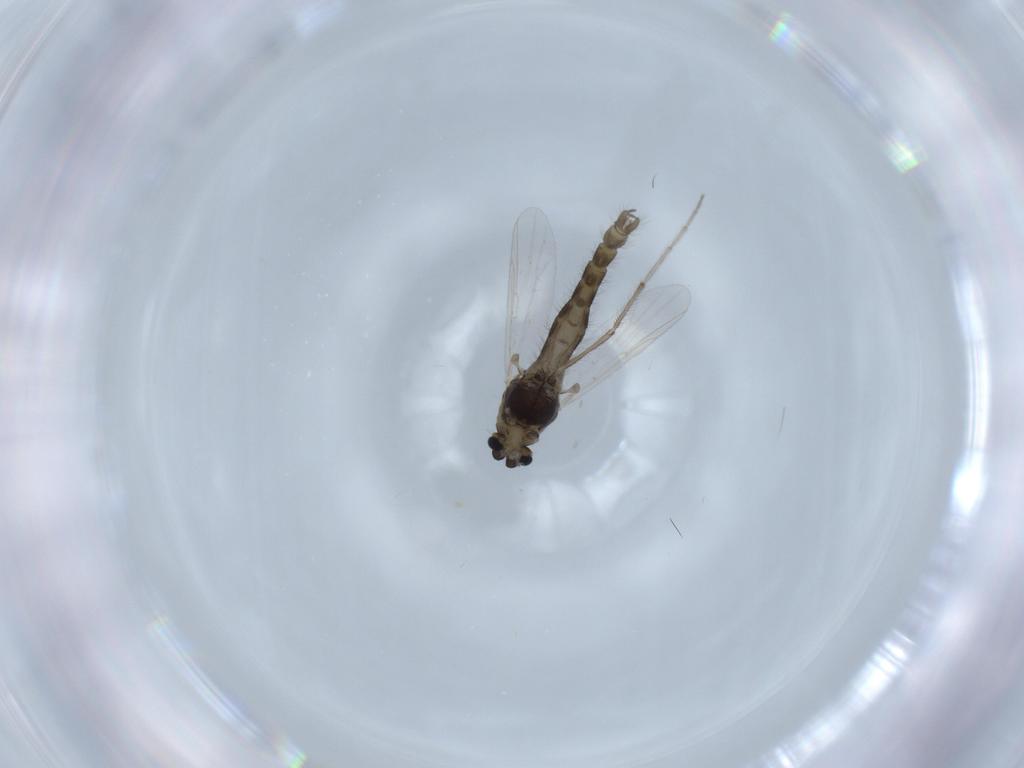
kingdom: Animalia
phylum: Arthropoda
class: Insecta
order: Diptera
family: Chironomidae
